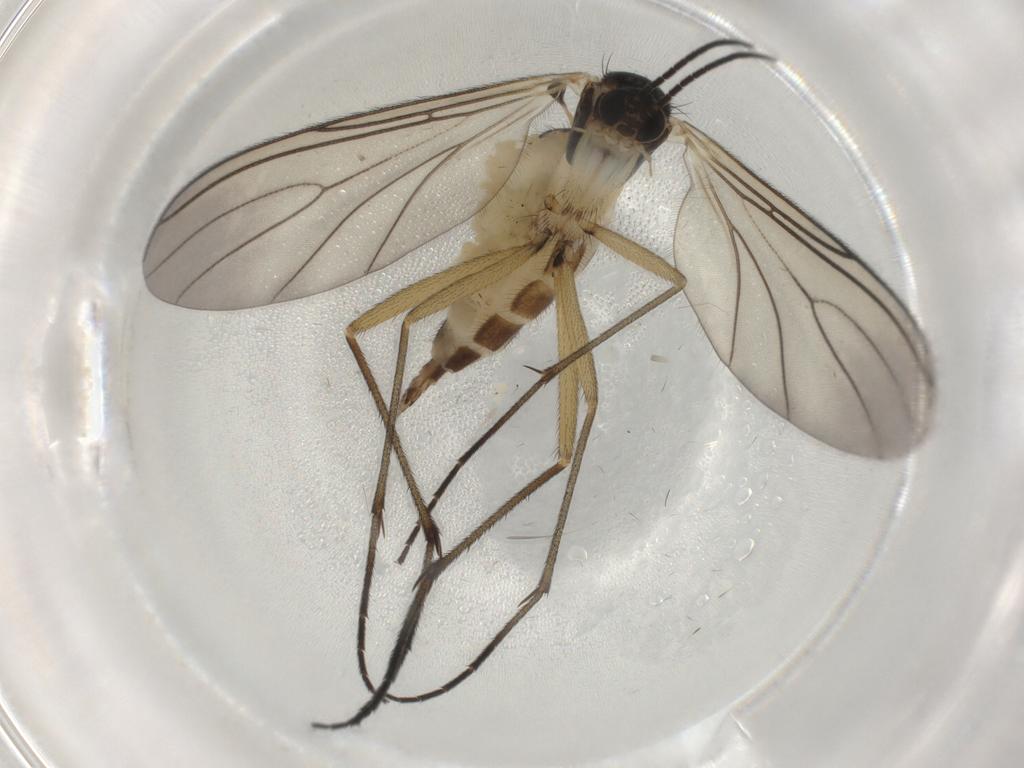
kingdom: Animalia
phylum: Arthropoda
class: Insecta
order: Diptera
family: Sciaridae
